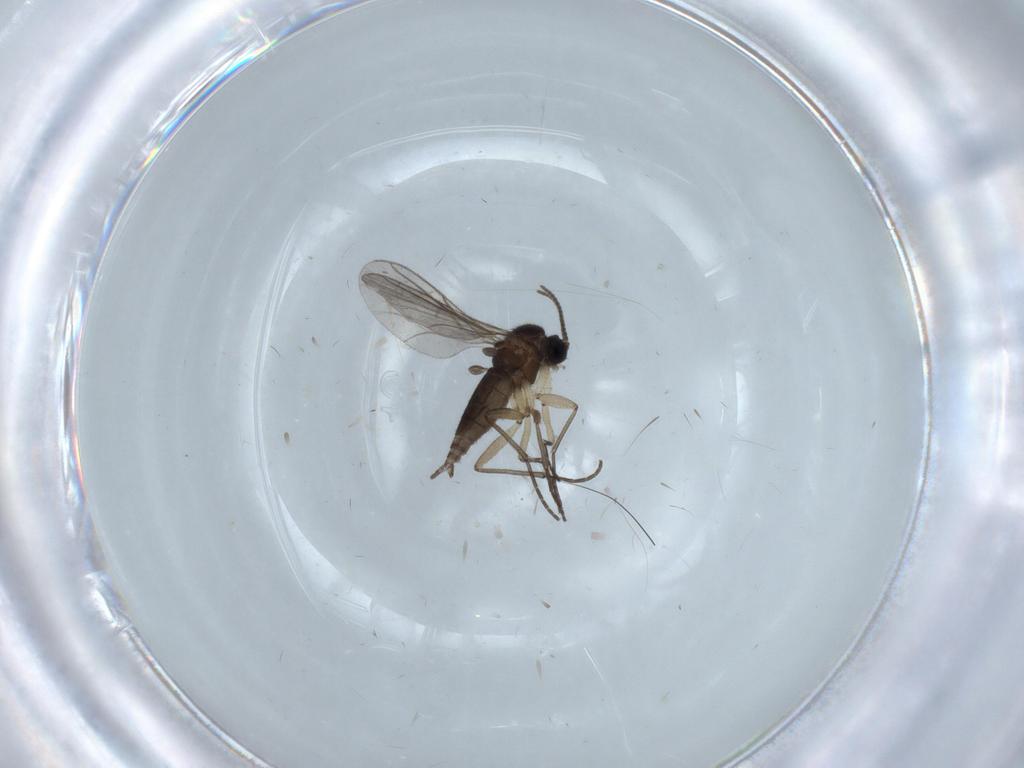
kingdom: Animalia
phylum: Arthropoda
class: Insecta
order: Diptera
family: Sciaridae
